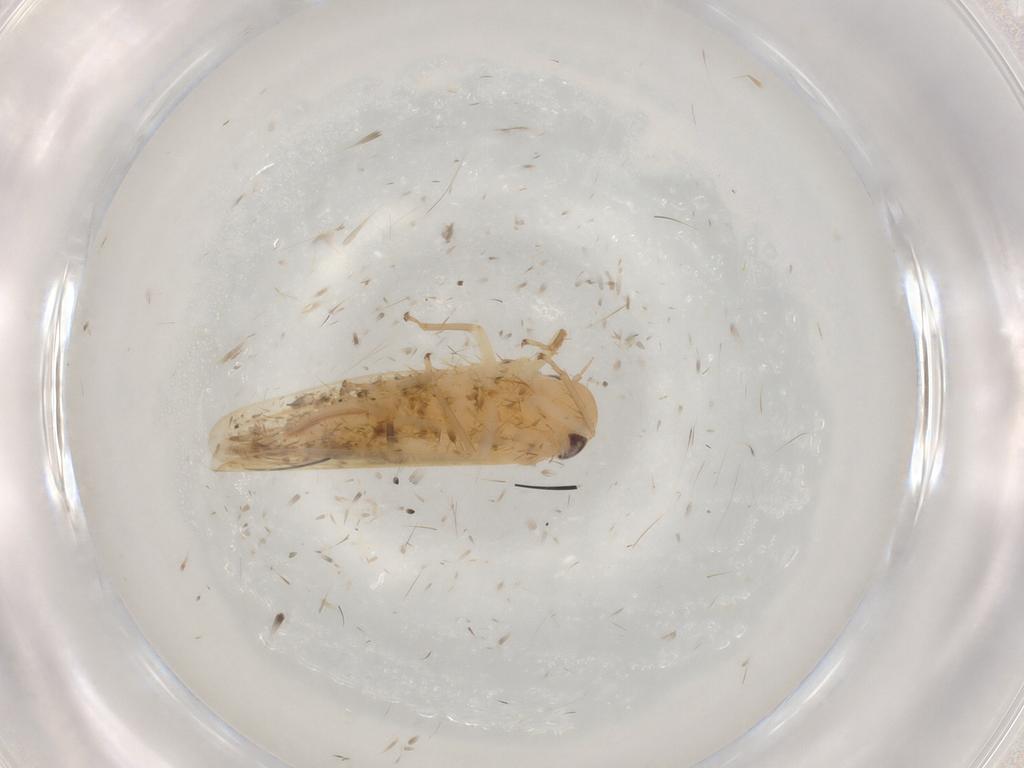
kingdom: Animalia
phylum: Arthropoda
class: Insecta
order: Hemiptera
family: Cicadellidae
